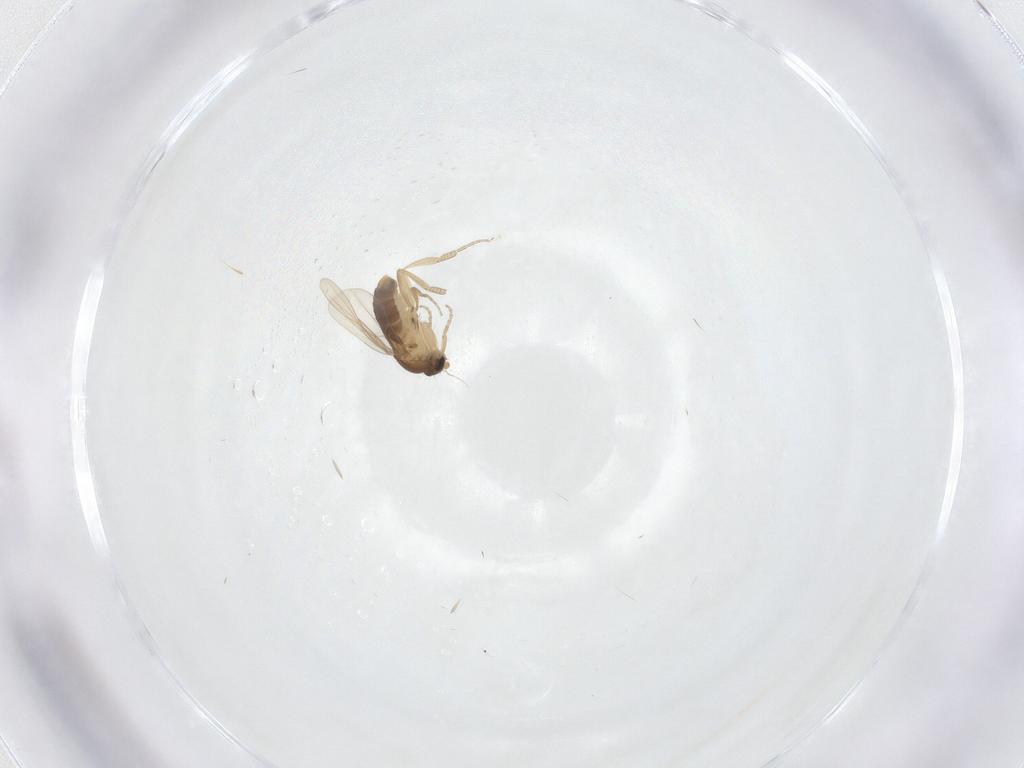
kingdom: Animalia
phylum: Arthropoda
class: Insecta
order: Diptera
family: Phoridae
